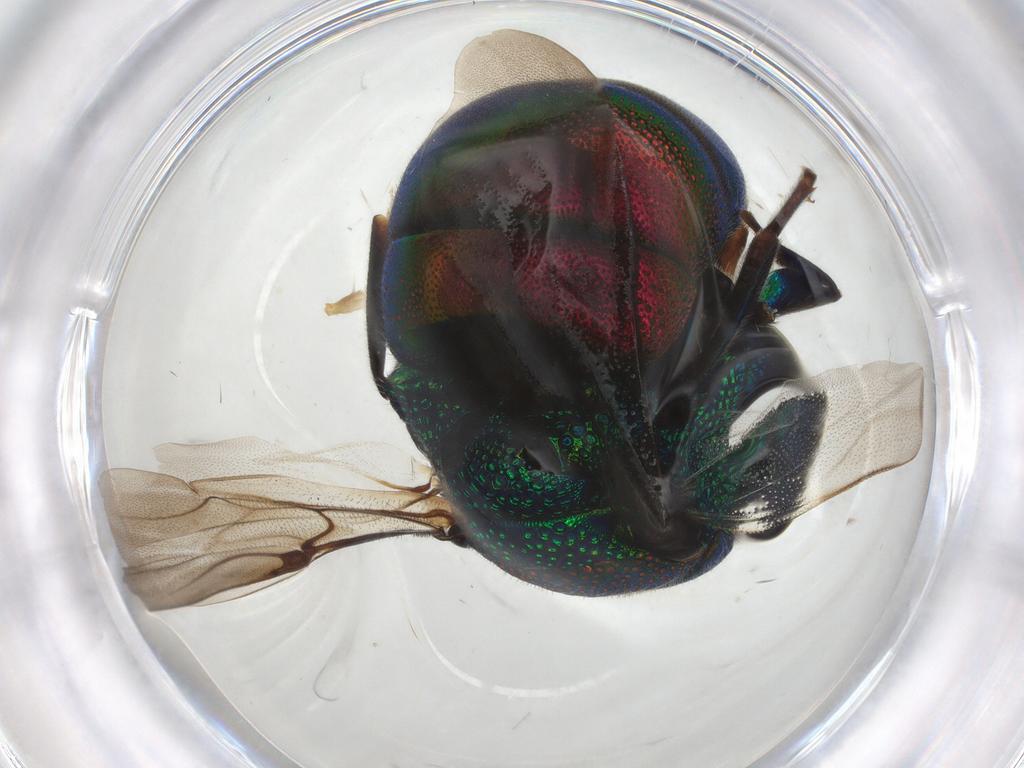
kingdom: Animalia
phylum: Arthropoda
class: Insecta
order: Hymenoptera
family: Chrysididae
